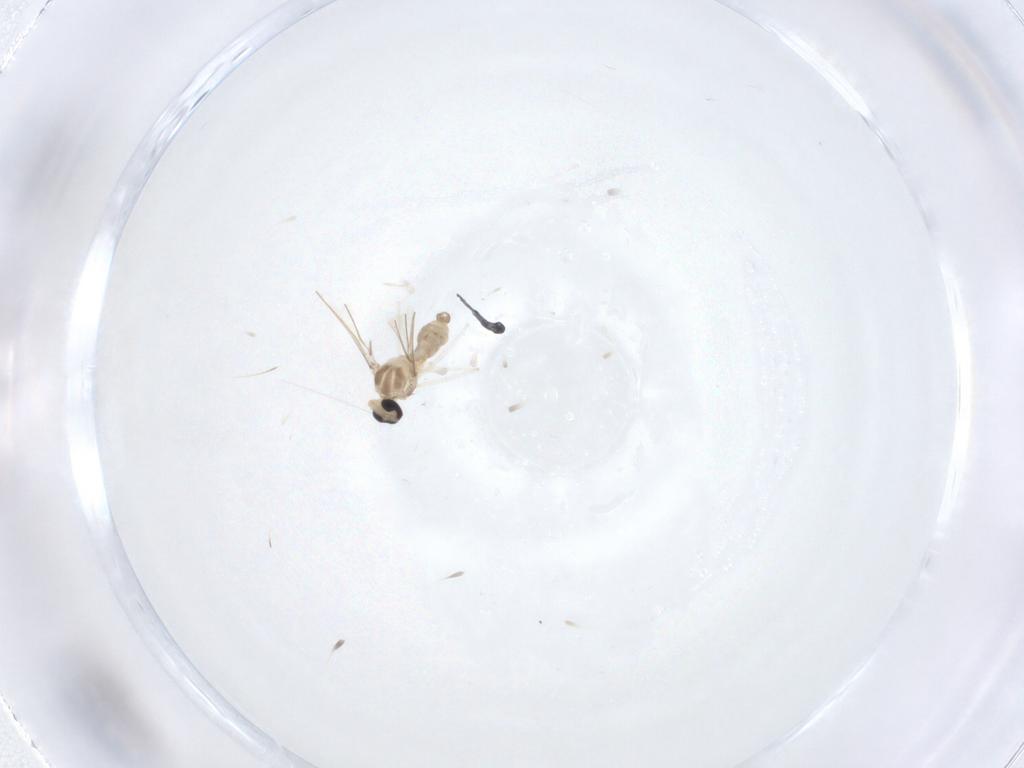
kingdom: Animalia
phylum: Arthropoda
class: Insecta
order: Diptera
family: Cecidomyiidae
